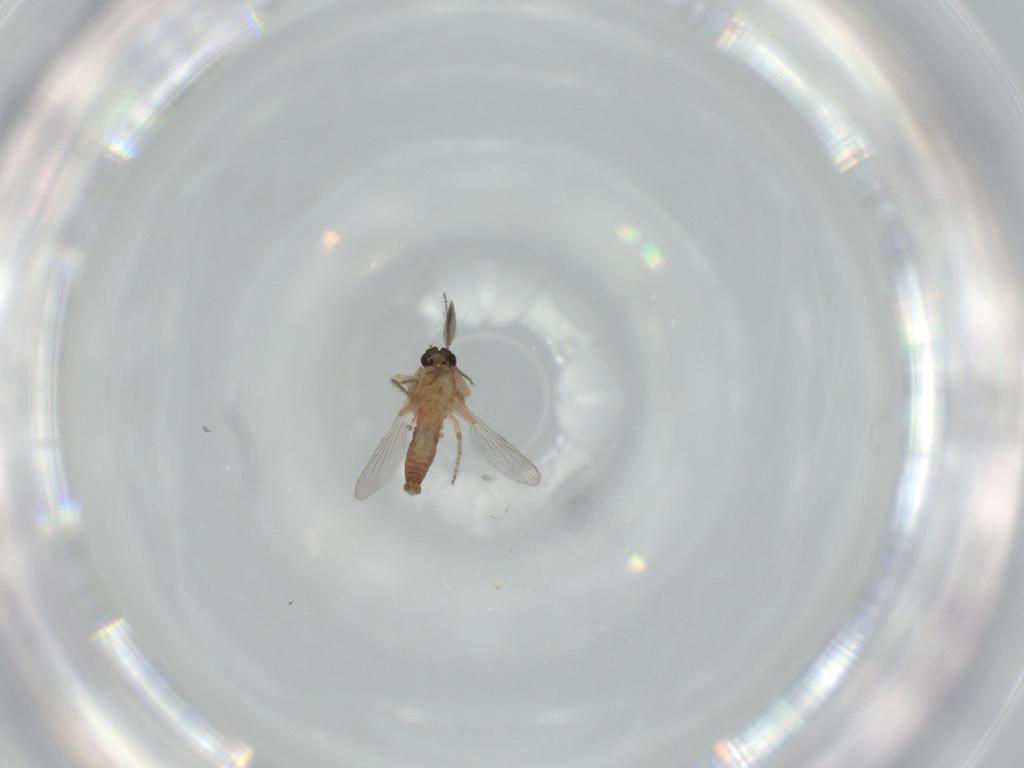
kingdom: Animalia
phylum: Arthropoda
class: Insecta
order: Diptera
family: Ceratopogonidae
